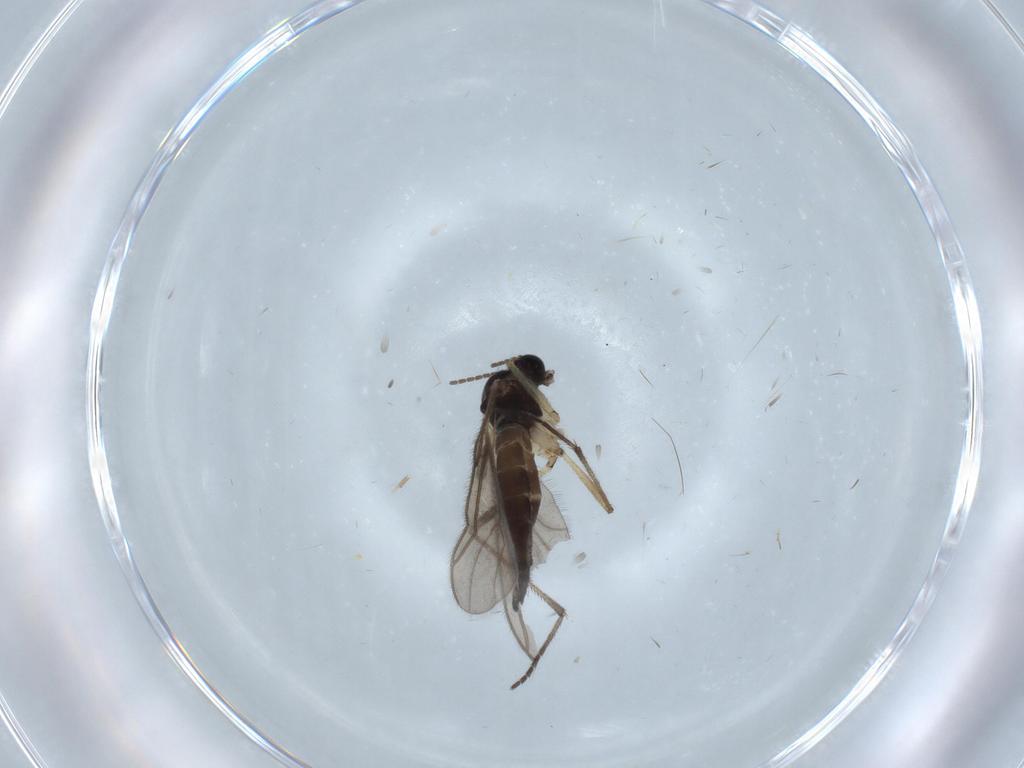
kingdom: Animalia
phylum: Arthropoda
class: Insecta
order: Diptera
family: Sciaridae
